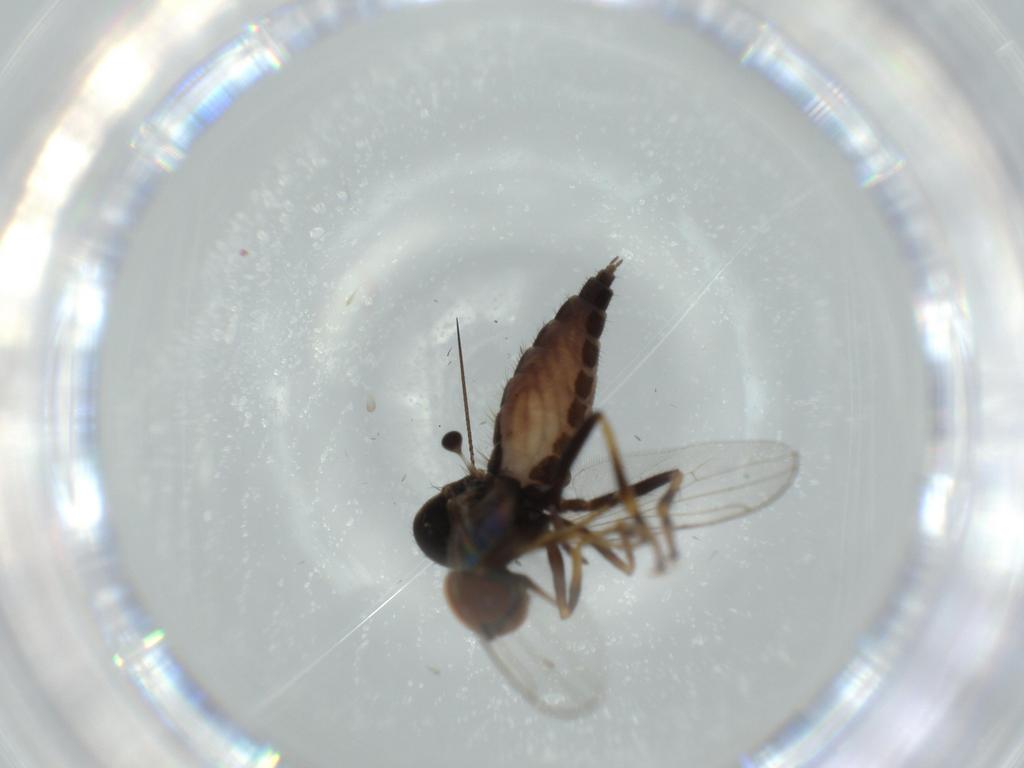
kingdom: Animalia
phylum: Arthropoda
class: Insecta
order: Diptera
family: Hybotidae
